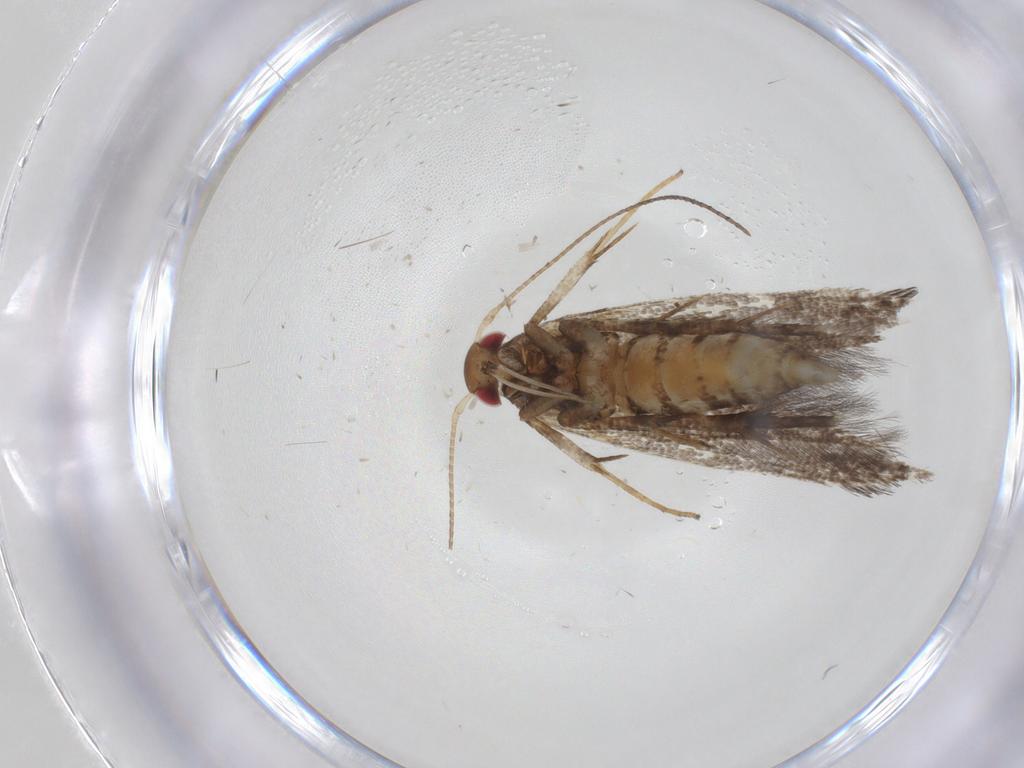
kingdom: Animalia
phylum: Arthropoda
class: Insecta
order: Lepidoptera
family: Gelechiidae
